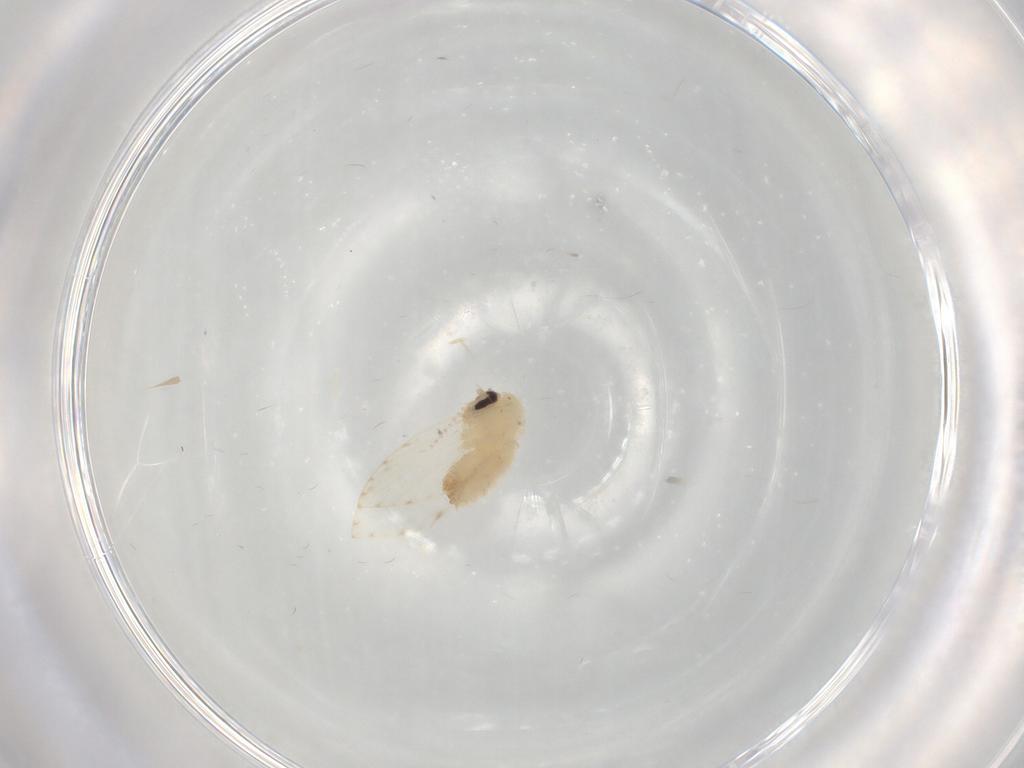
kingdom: Animalia
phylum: Arthropoda
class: Insecta
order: Diptera
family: Psychodidae
